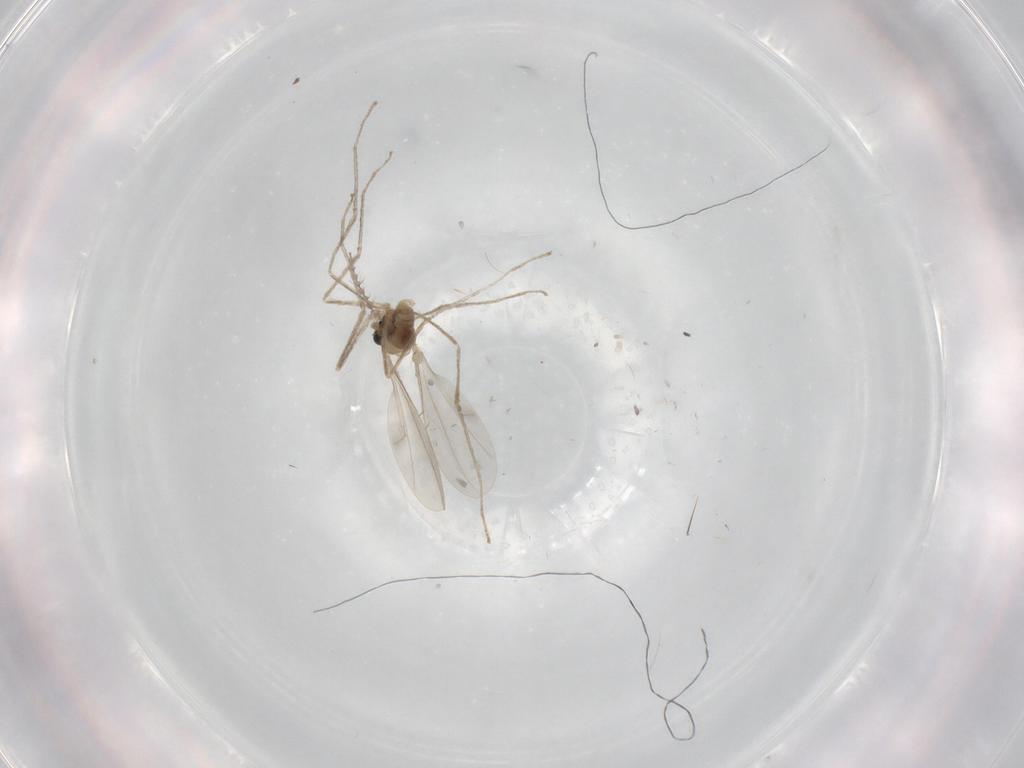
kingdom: Animalia
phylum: Arthropoda
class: Insecta
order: Diptera
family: Cecidomyiidae
